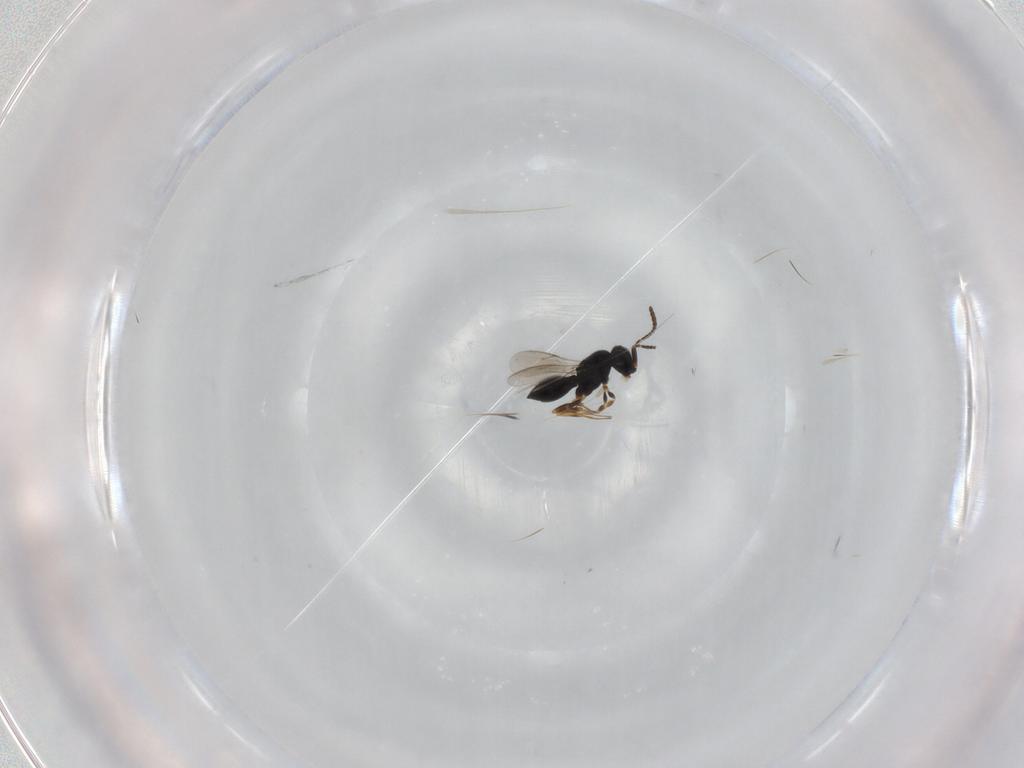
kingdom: Animalia
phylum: Arthropoda
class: Insecta
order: Hymenoptera
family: Scelionidae
